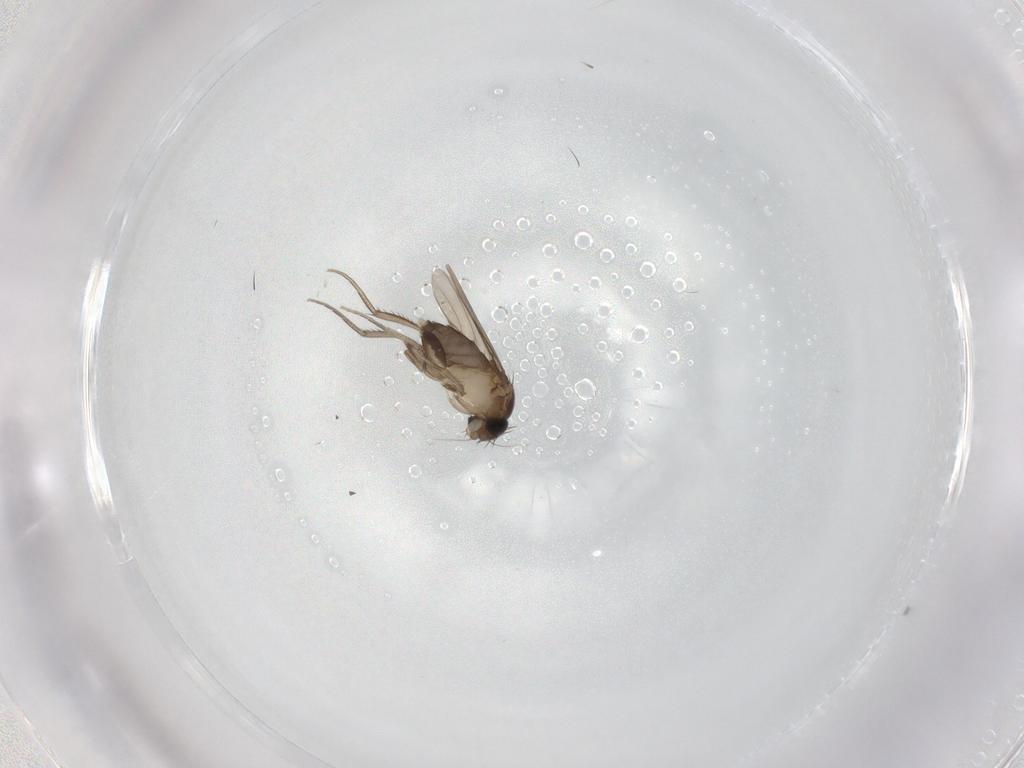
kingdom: Animalia
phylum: Arthropoda
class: Insecta
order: Diptera
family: Phoridae
